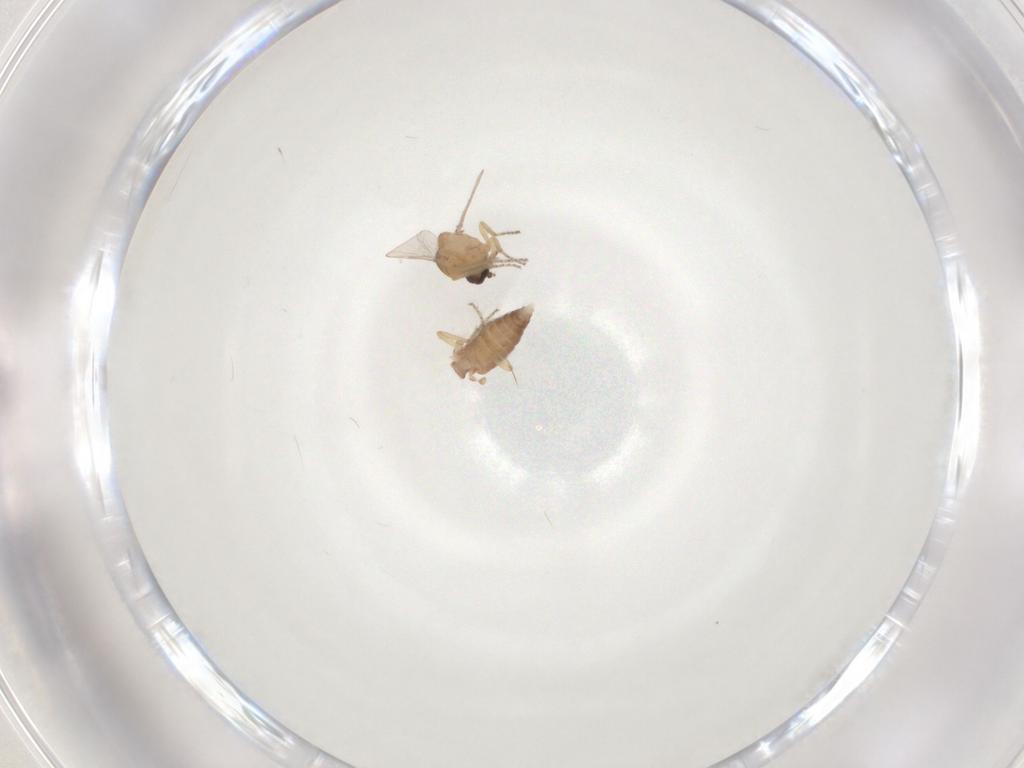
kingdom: Animalia
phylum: Arthropoda
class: Insecta
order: Diptera
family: Ceratopogonidae
